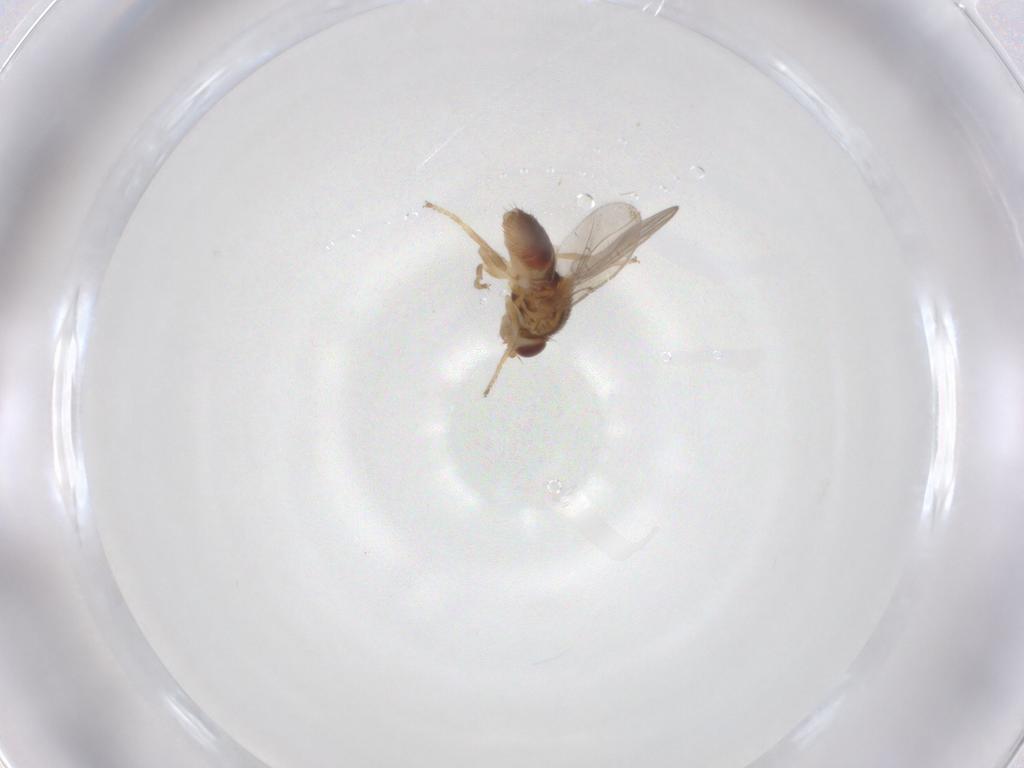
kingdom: Animalia
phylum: Arthropoda
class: Insecta
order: Diptera
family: Chloropidae
